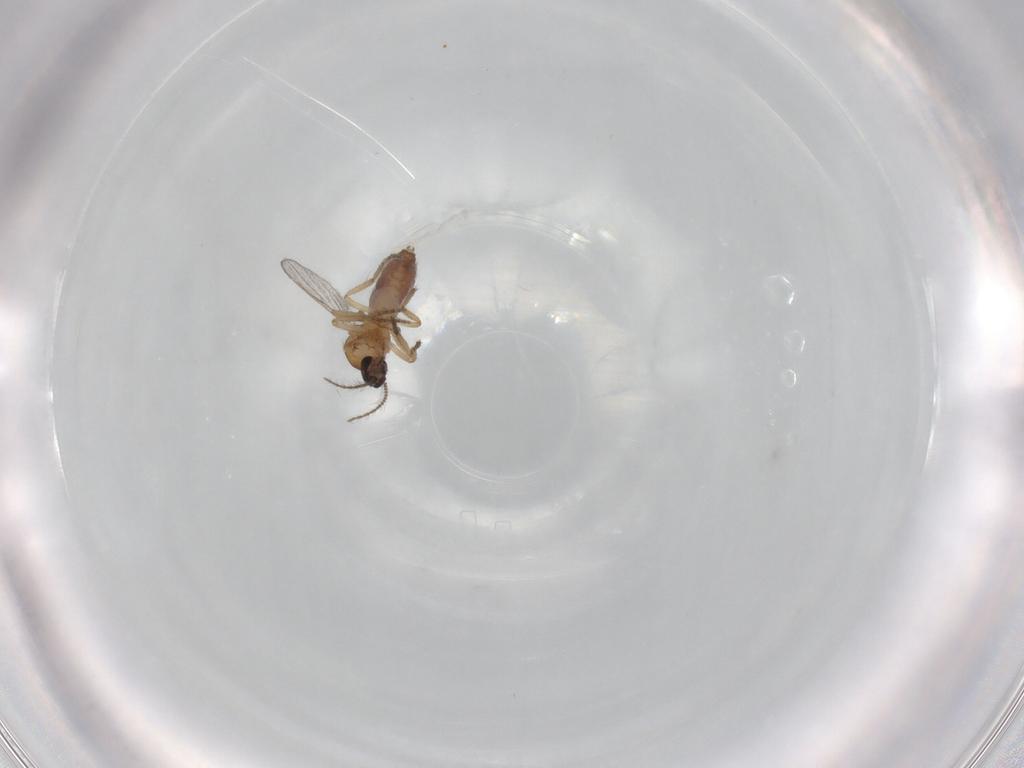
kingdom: Animalia
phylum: Arthropoda
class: Insecta
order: Diptera
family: Ceratopogonidae
